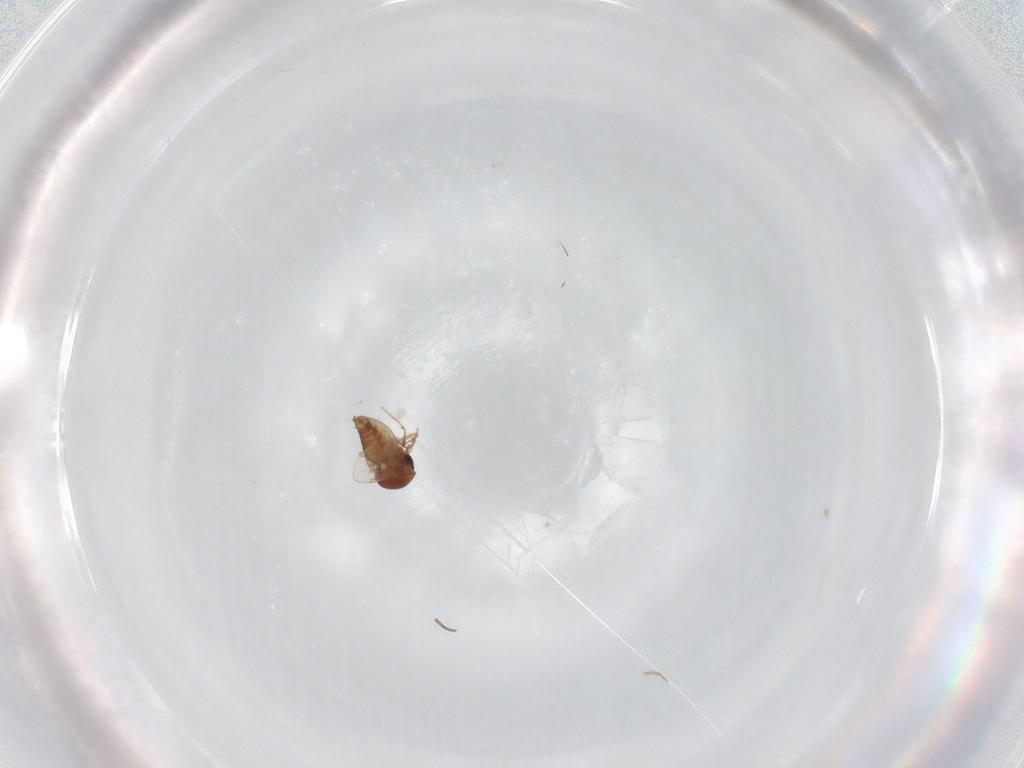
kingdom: Animalia
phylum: Arthropoda
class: Insecta
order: Diptera
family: Ceratopogonidae
